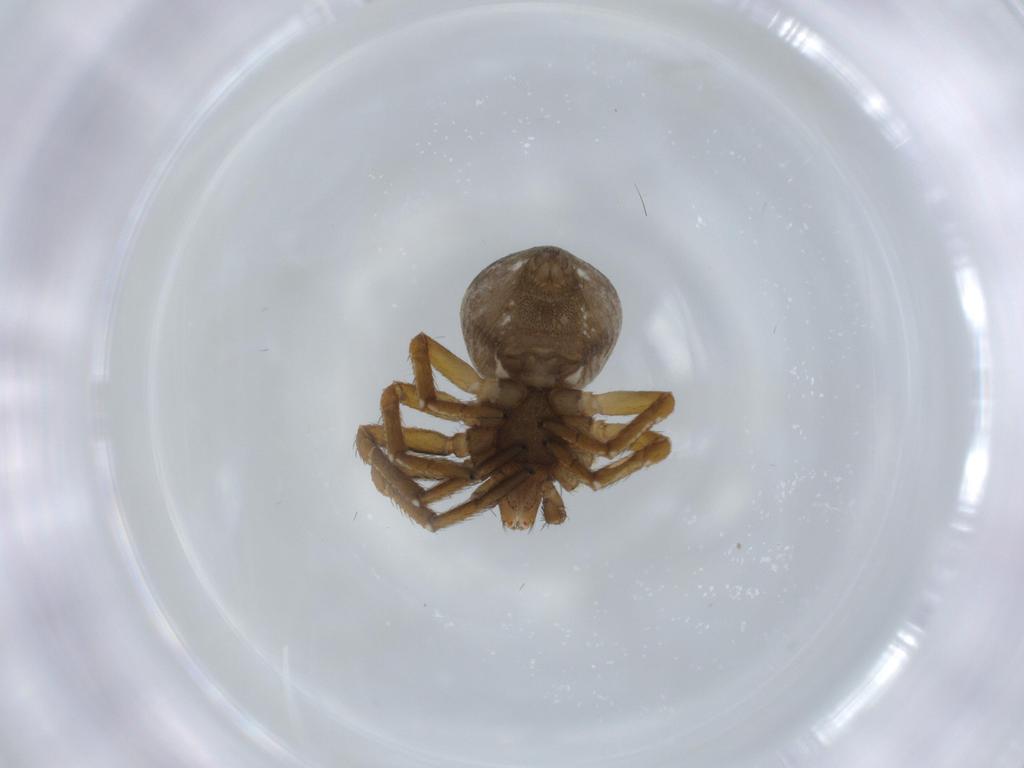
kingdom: Animalia
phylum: Arthropoda
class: Arachnida
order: Araneae
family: Thomisidae
